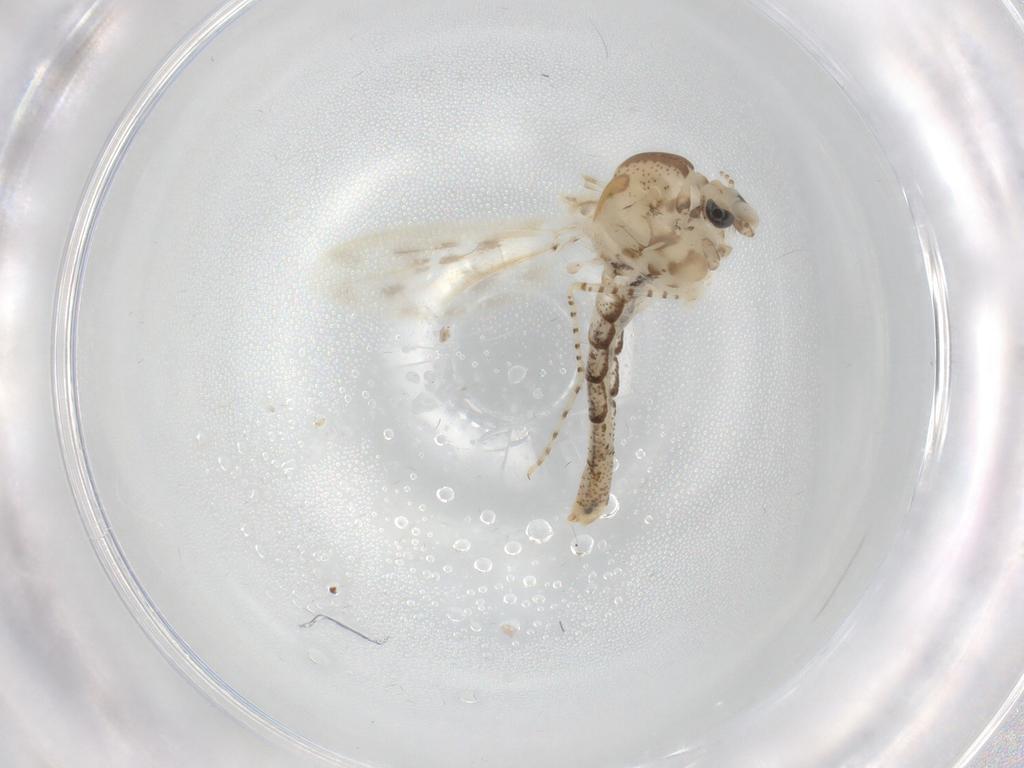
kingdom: Animalia
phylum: Arthropoda
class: Insecta
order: Diptera
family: Chaoboridae
